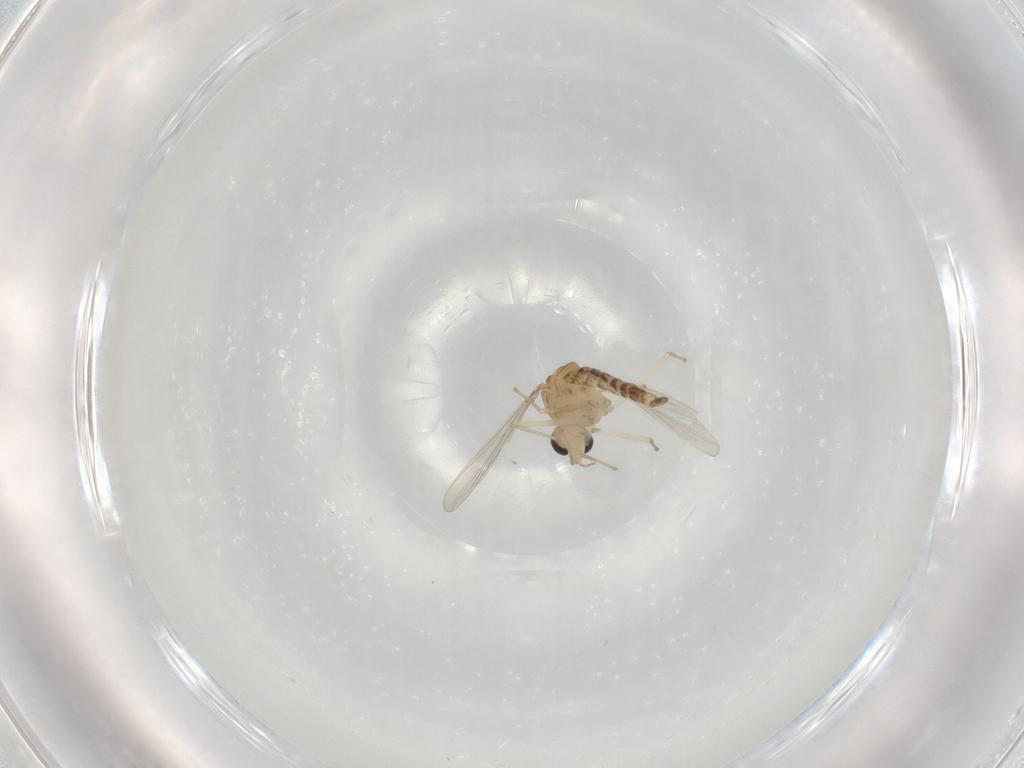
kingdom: Animalia
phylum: Arthropoda
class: Insecta
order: Diptera
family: Chironomidae
